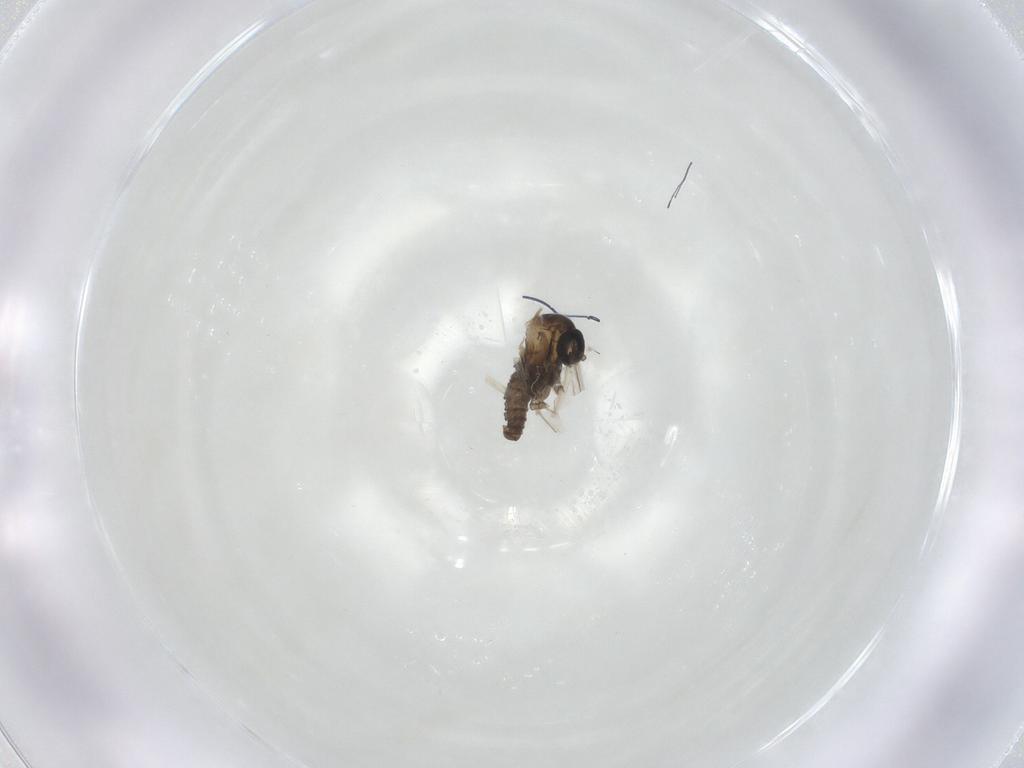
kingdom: Animalia
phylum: Arthropoda
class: Insecta
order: Diptera
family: Cecidomyiidae
